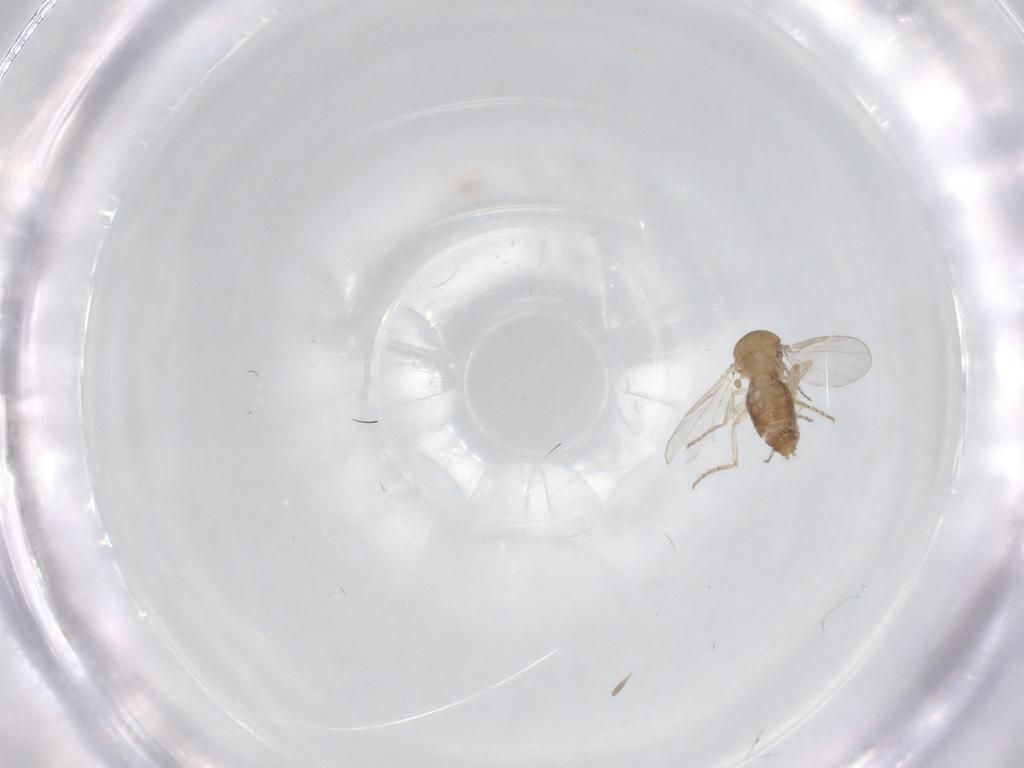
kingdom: Animalia
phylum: Arthropoda
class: Insecta
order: Diptera
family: Ceratopogonidae
